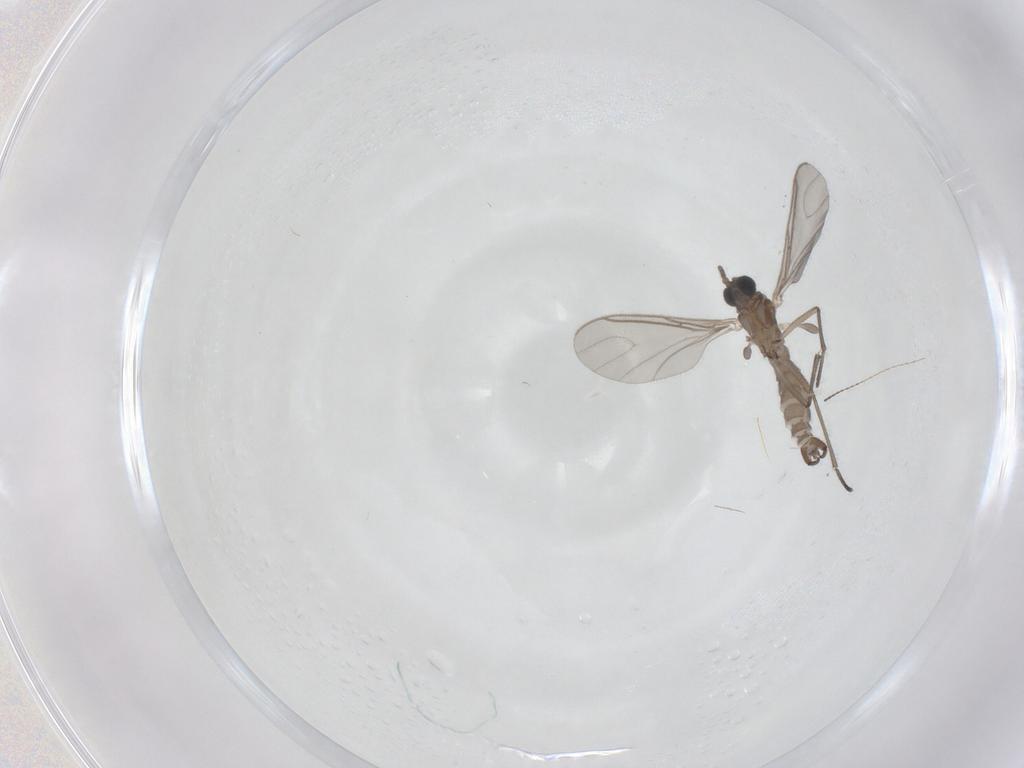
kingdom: Animalia
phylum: Arthropoda
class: Insecta
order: Diptera
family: Sciaridae
